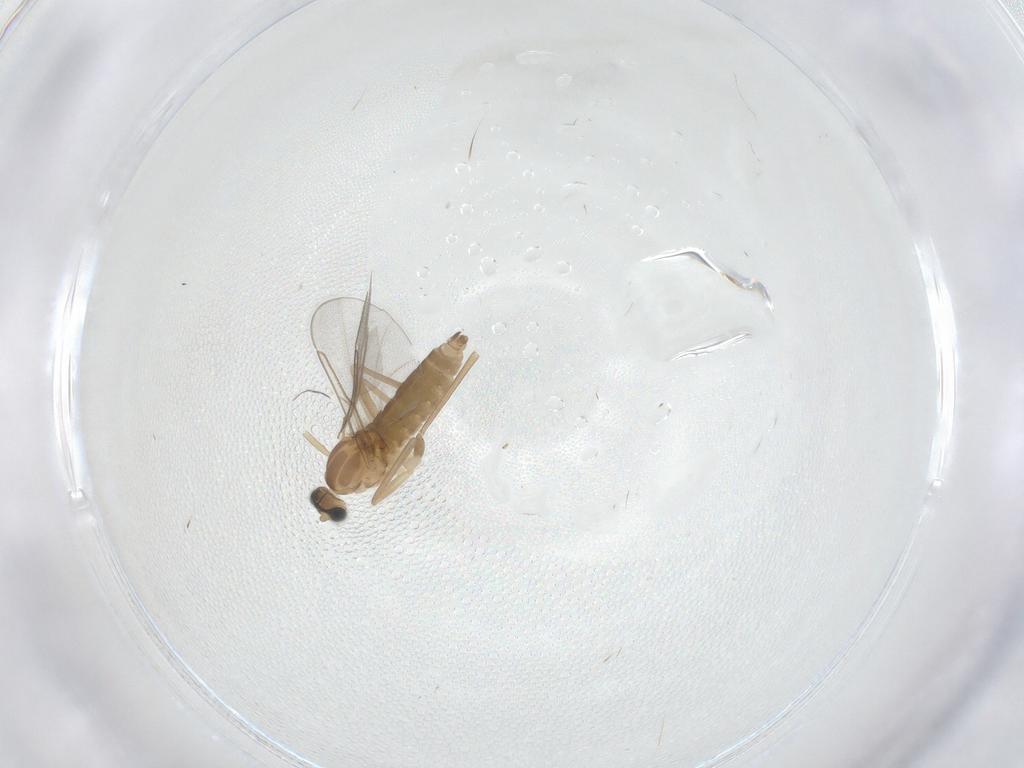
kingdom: Animalia
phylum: Arthropoda
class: Insecta
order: Diptera
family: Cecidomyiidae
